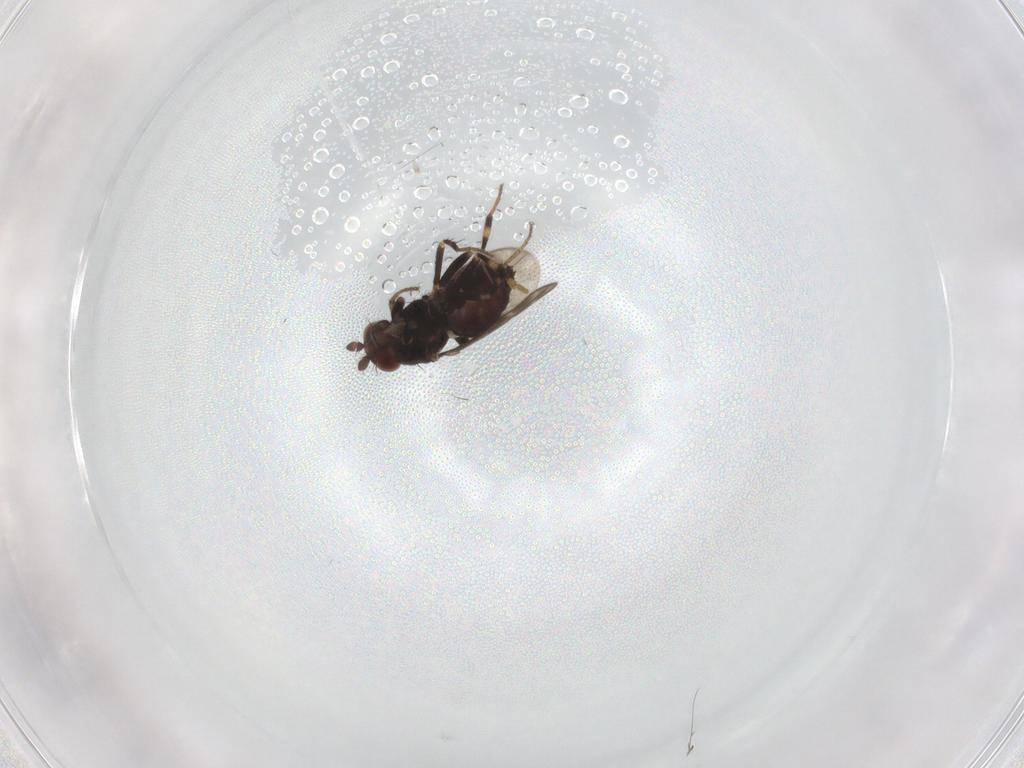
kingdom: Animalia
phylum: Arthropoda
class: Insecta
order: Diptera
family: Sphaeroceridae
